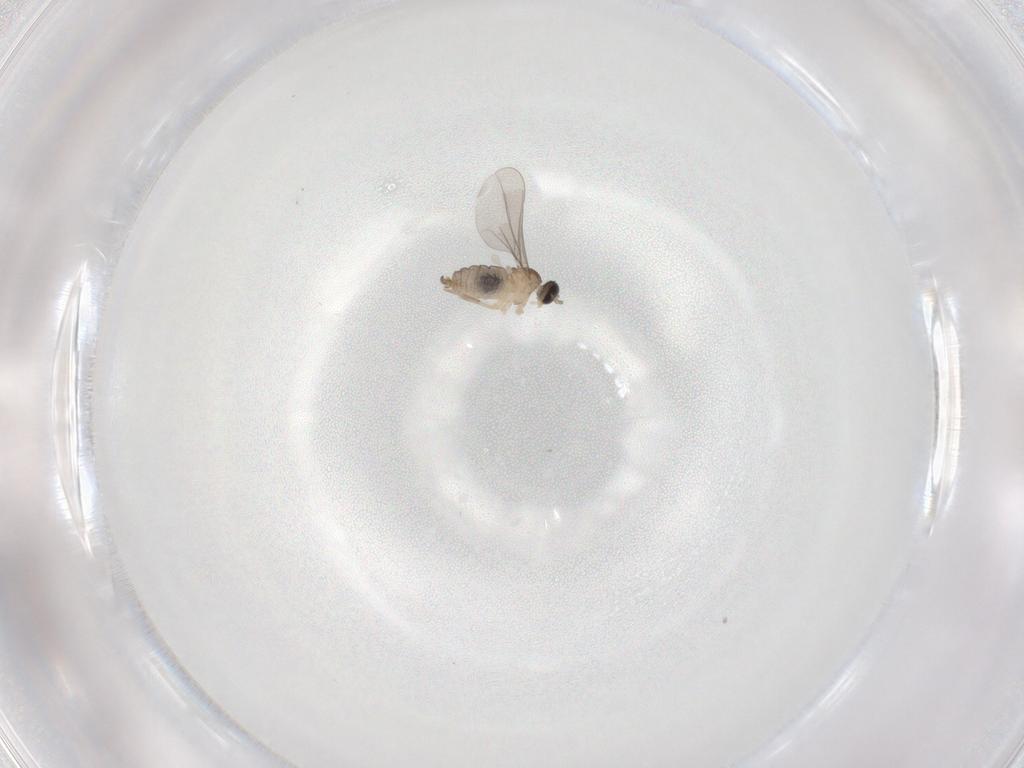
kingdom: Animalia
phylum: Arthropoda
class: Insecta
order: Diptera
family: Cecidomyiidae
